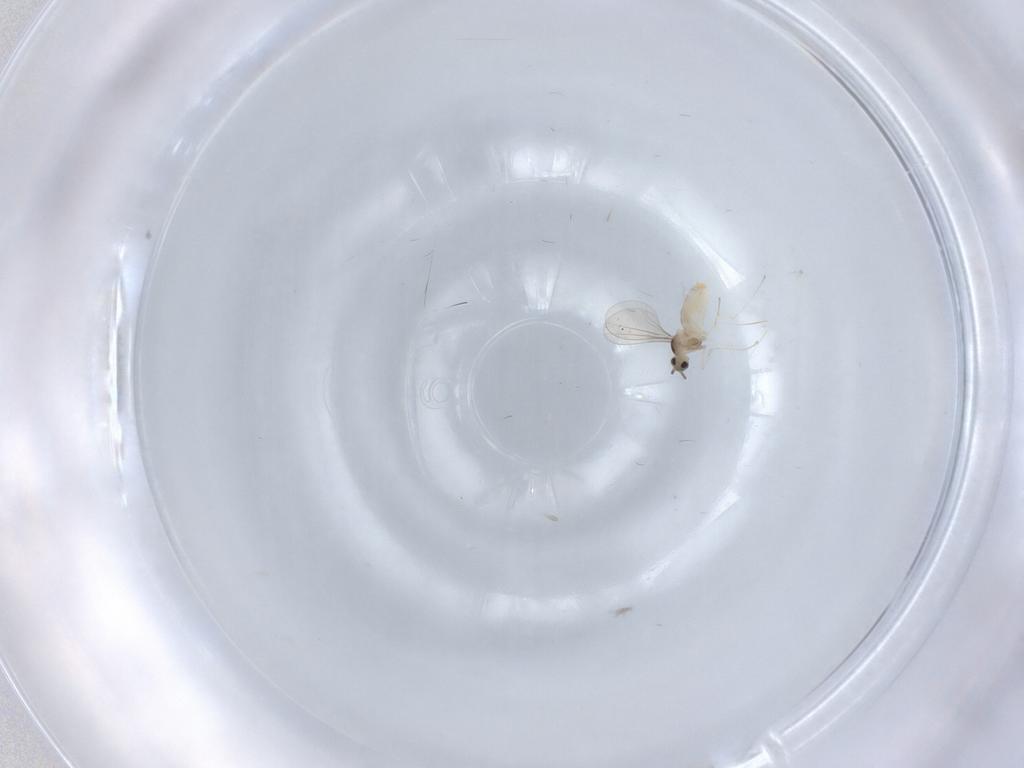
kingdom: Animalia
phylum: Arthropoda
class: Insecta
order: Diptera
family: Cecidomyiidae
